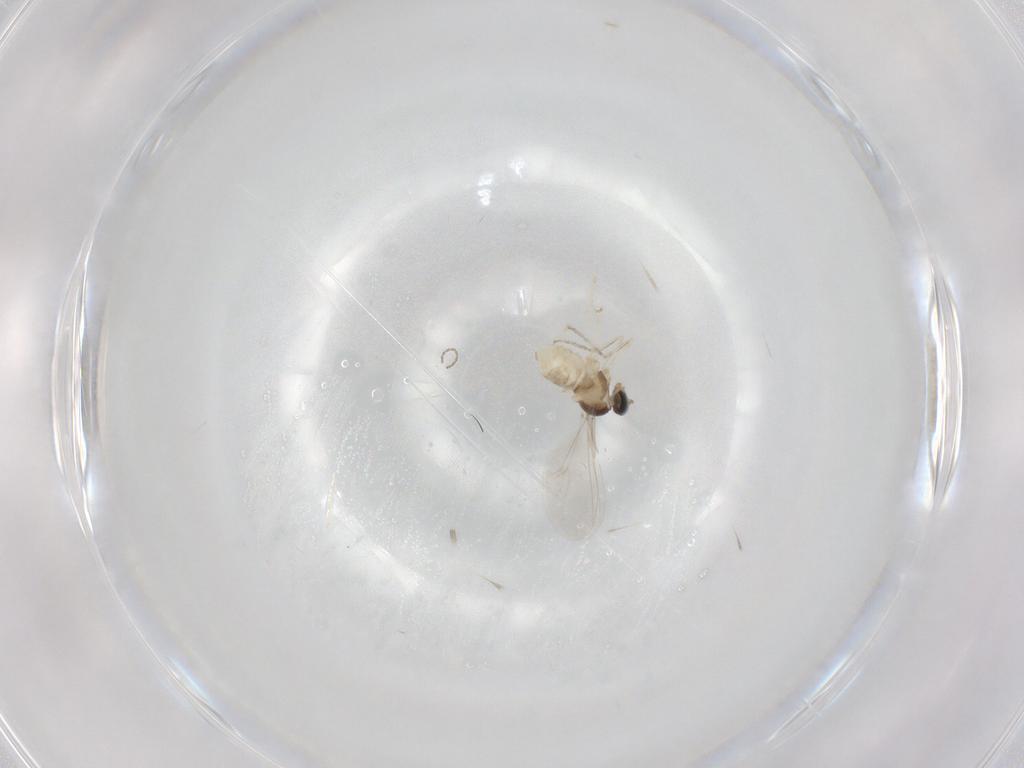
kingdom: Animalia
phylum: Arthropoda
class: Insecta
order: Diptera
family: Cecidomyiidae
